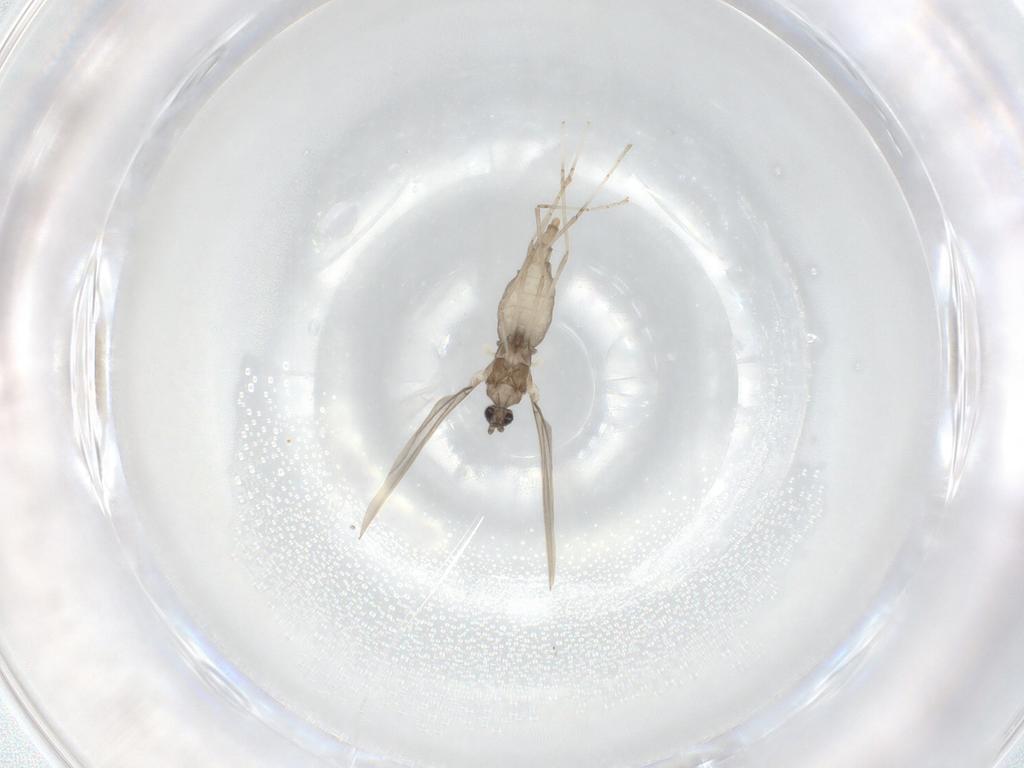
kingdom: Animalia
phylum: Arthropoda
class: Insecta
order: Diptera
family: Cecidomyiidae
